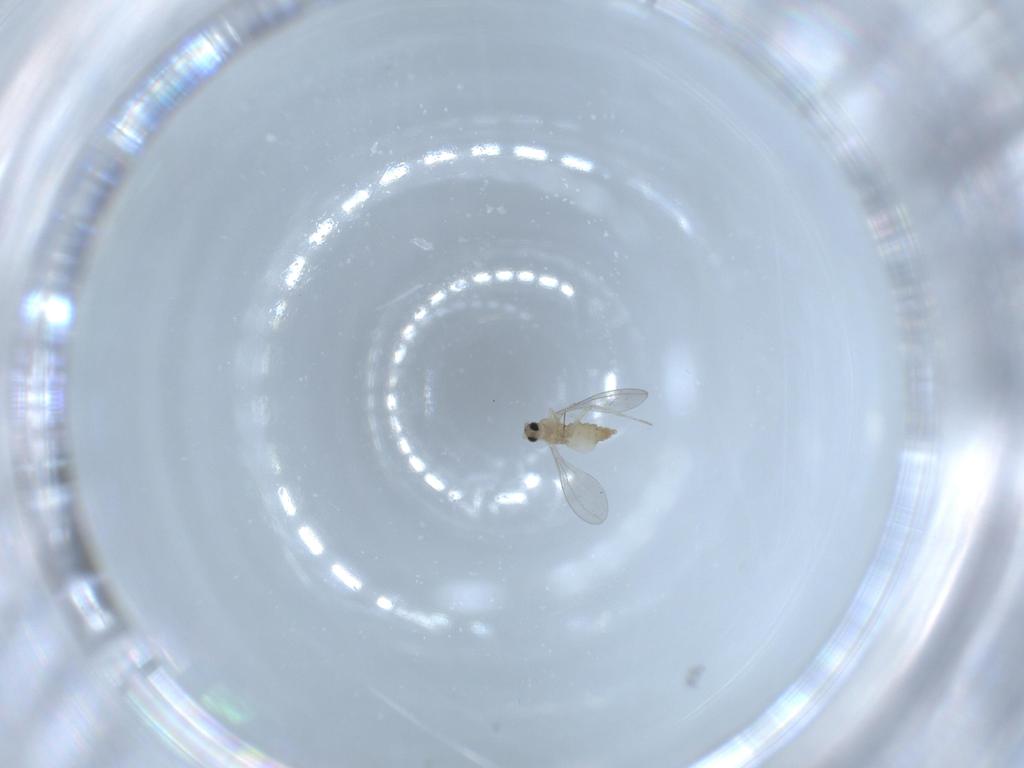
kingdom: Animalia
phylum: Arthropoda
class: Insecta
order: Diptera
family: Cecidomyiidae
